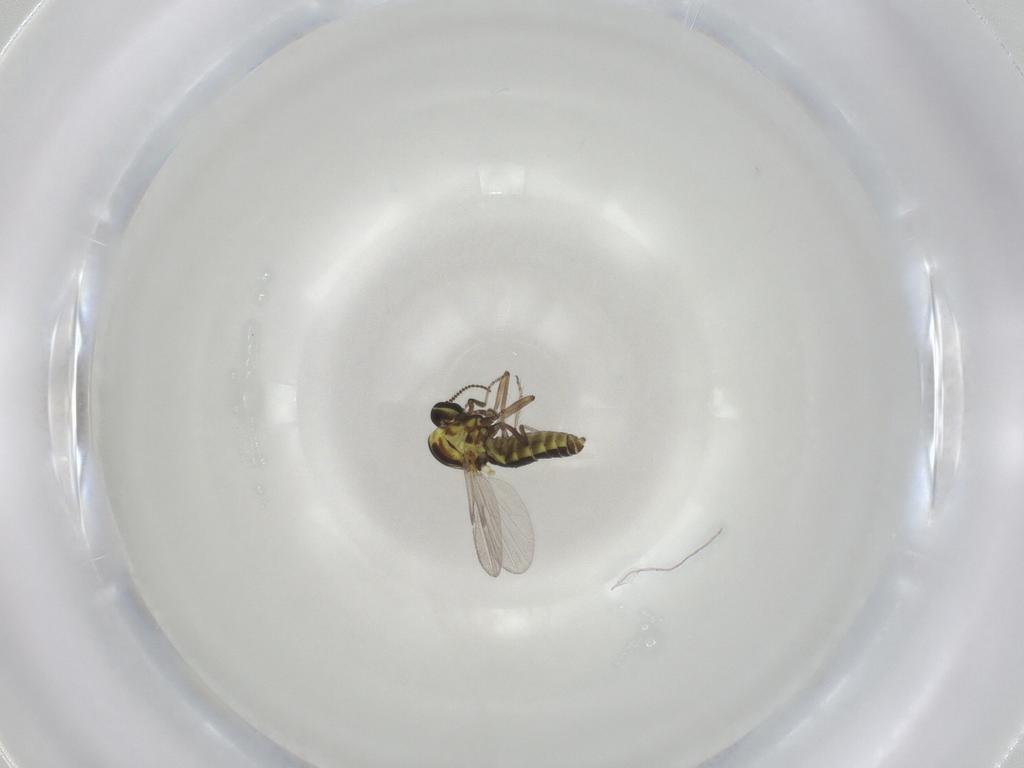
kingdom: Animalia
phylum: Arthropoda
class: Insecta
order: Diptera
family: Ceratopogonidae
